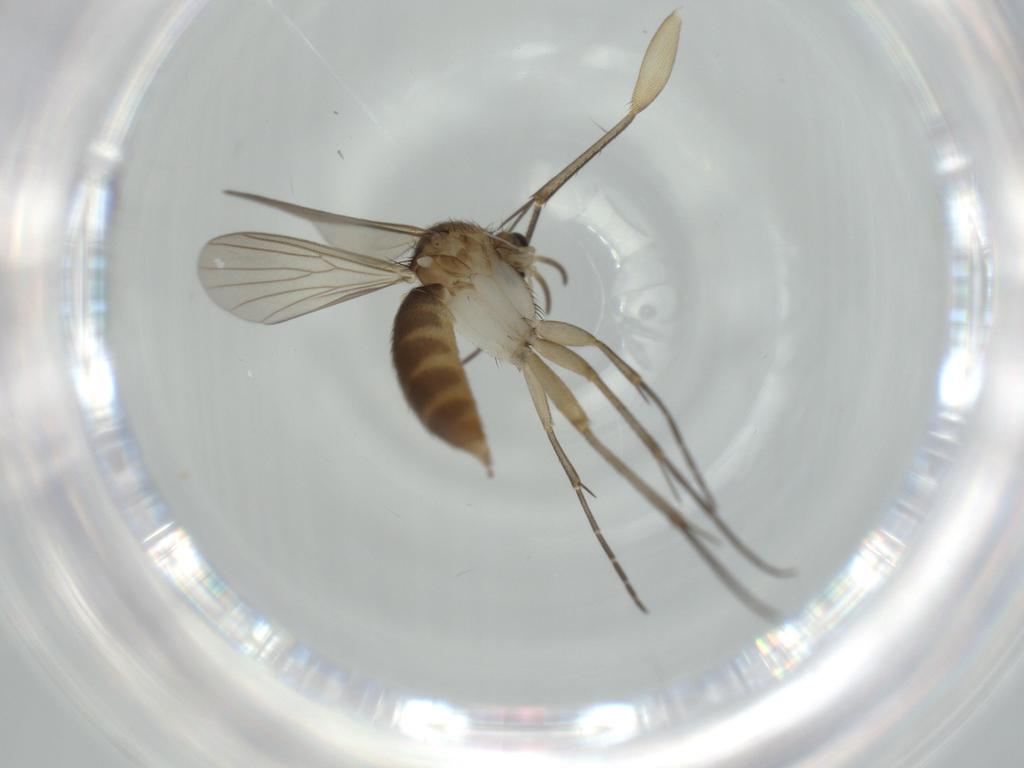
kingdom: Animalia
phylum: Arthropoda
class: Insecta
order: Diptera
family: Mycetophilidae
